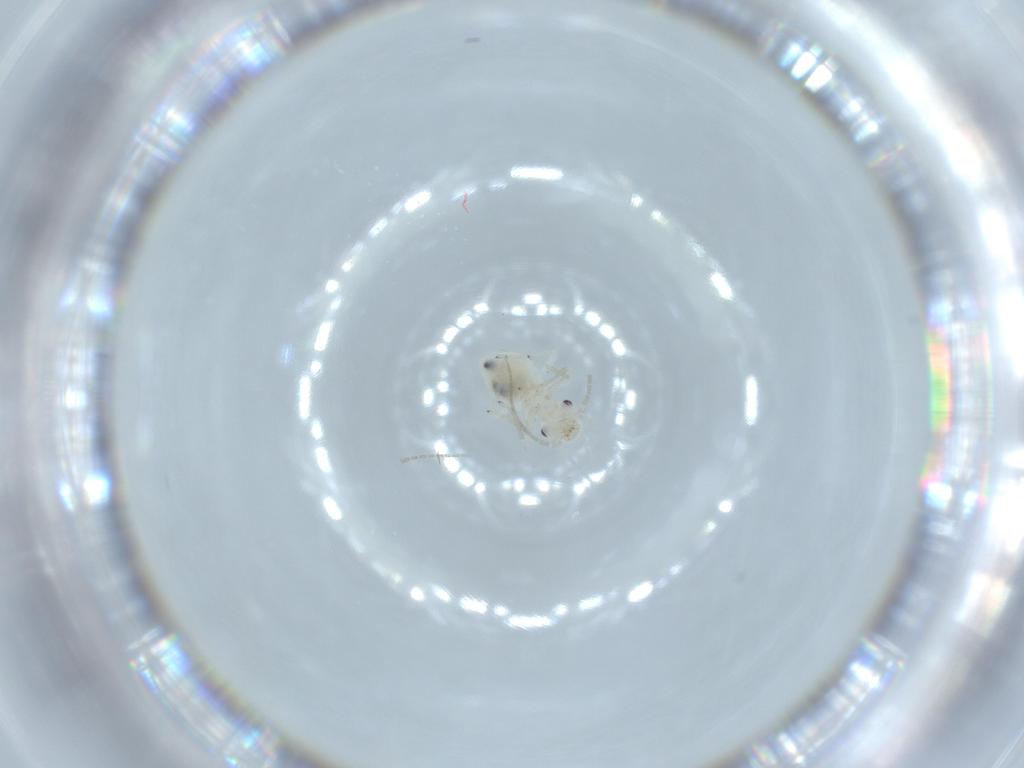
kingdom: Animalia
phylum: Arthropoda
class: Insecta
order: Psocodea
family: Caeciliusidae
